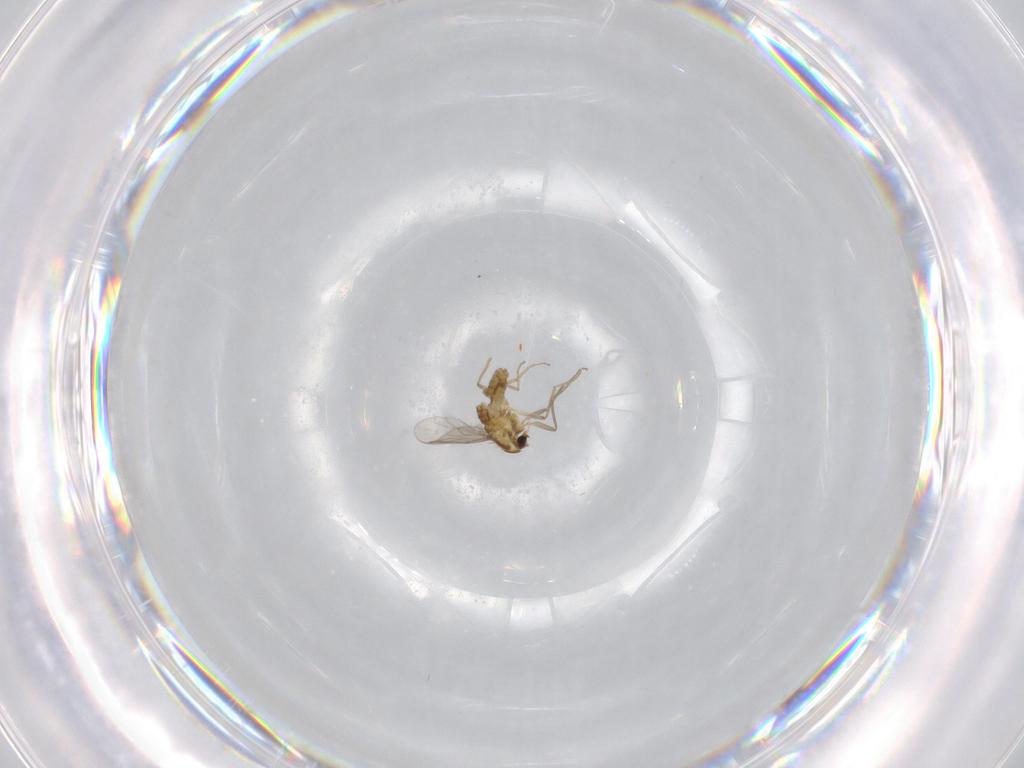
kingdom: Animalia
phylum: Arthropoda
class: Insecta
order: Diptera
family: Chironomidae
